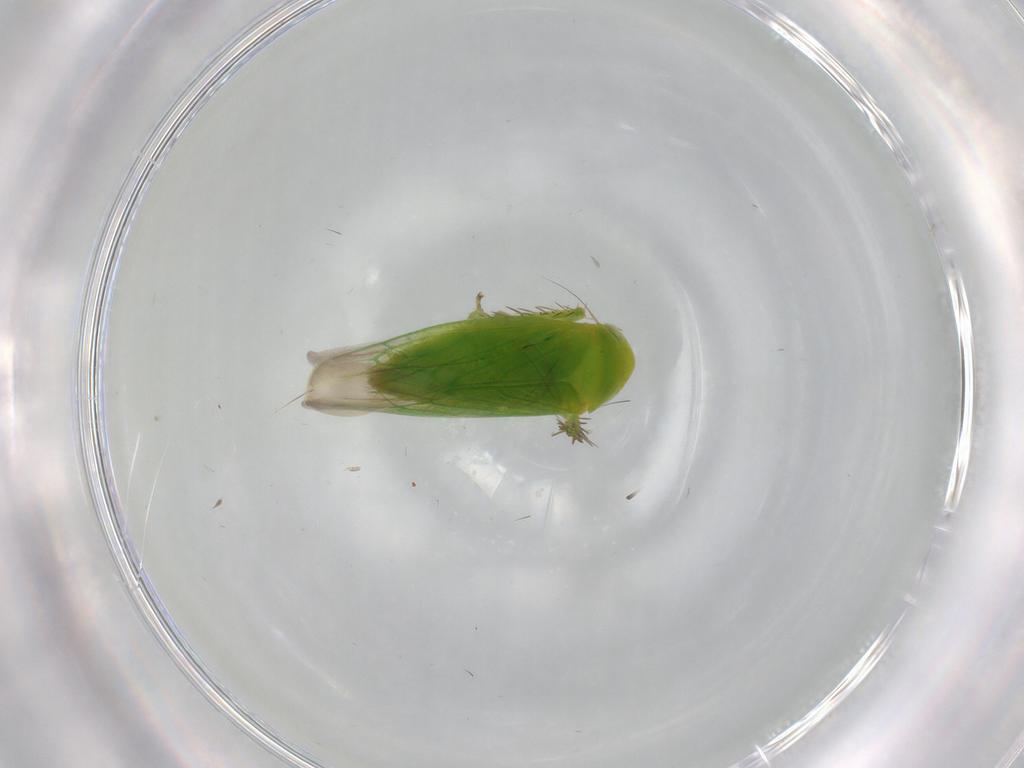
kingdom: Animalia
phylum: Arthropoda
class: Insecta
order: Hemiptera
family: Cicadellidae
